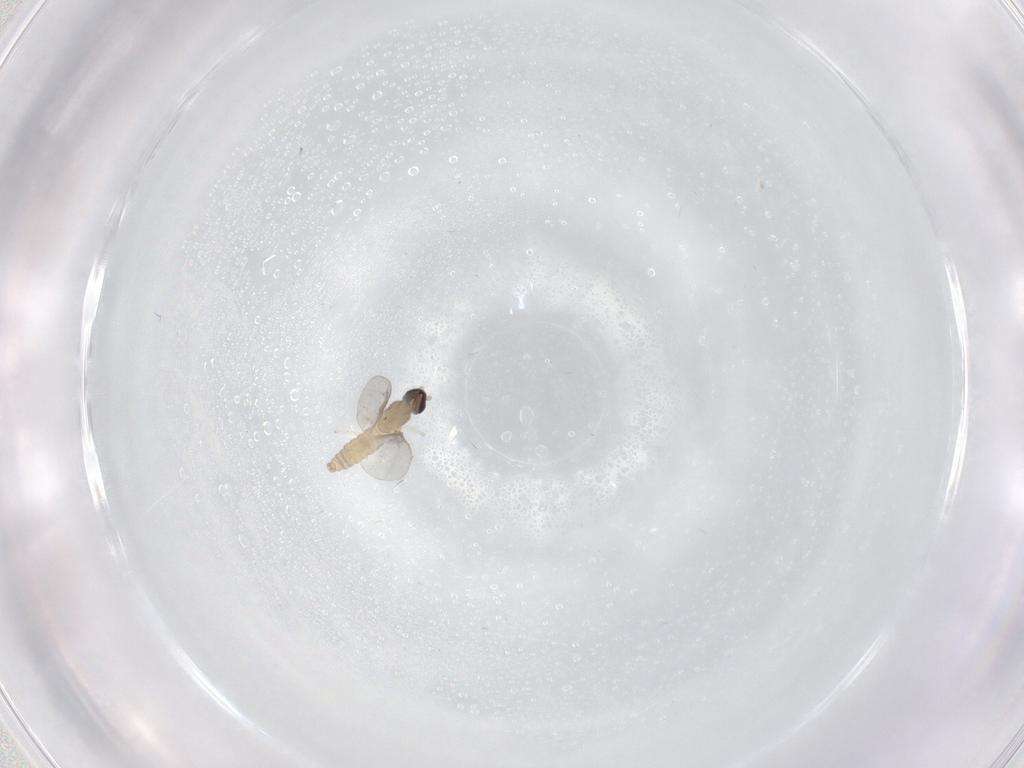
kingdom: Animalia
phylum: Arthropoda
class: Insecta
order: Diptera
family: Cecidomyiidae
